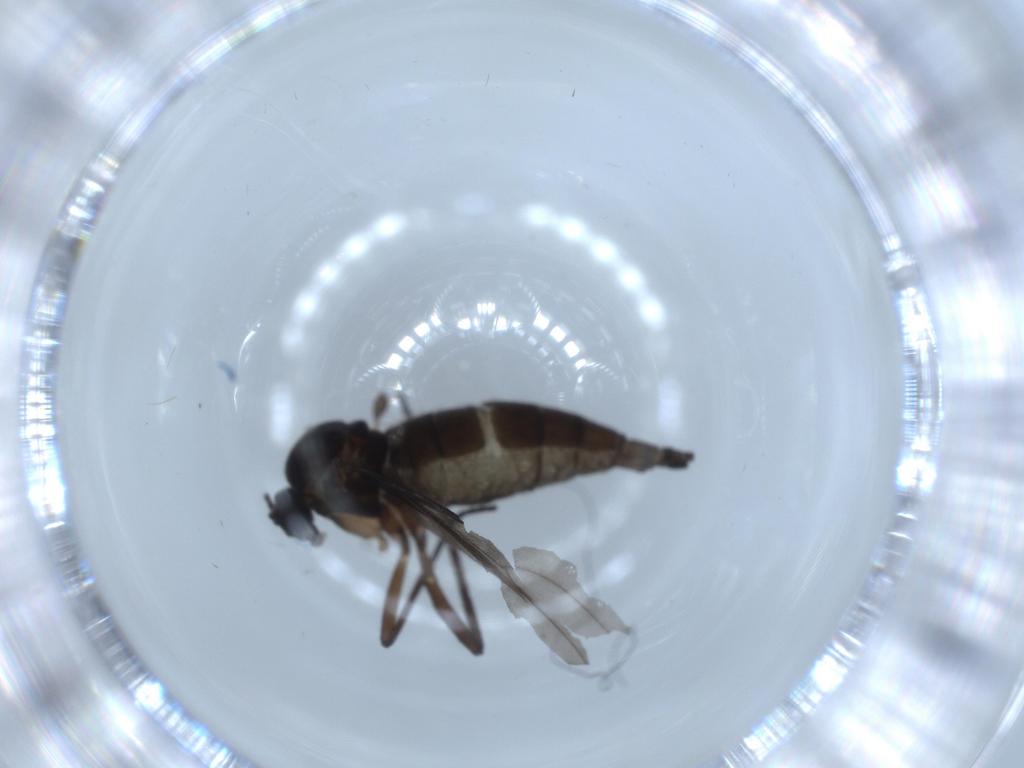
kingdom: Animalia
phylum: Arthropoda
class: Insecta
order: Diptera
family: Sciaridae
